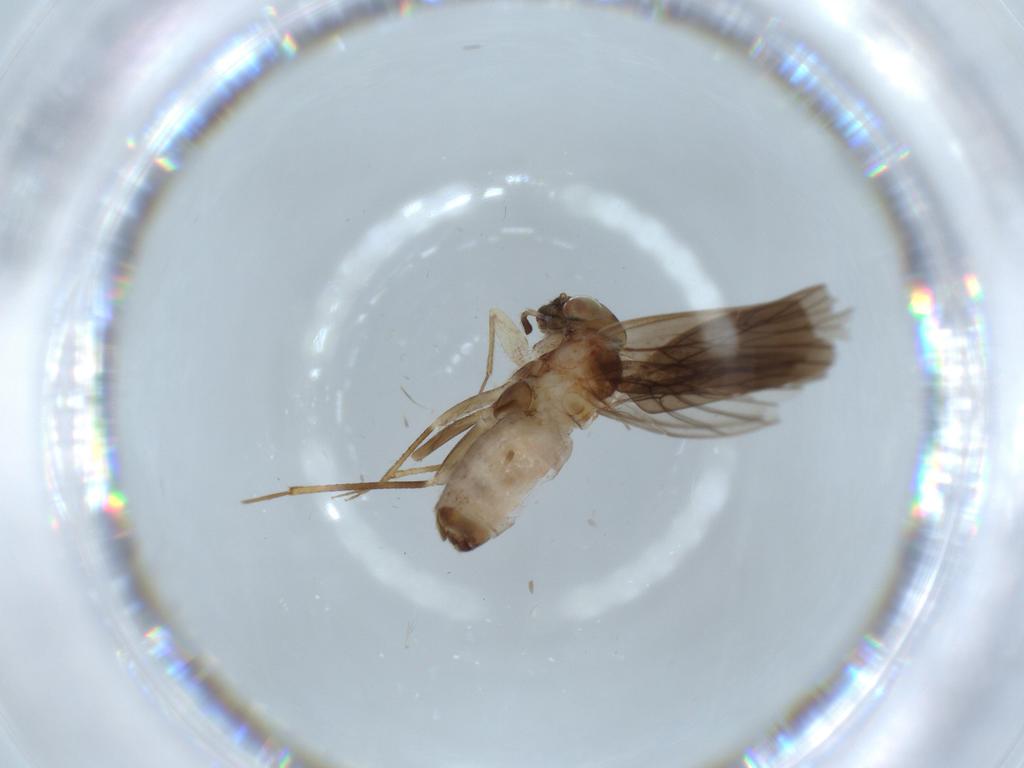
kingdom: Animalia
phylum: Arthropoda
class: Insecta
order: Psocodea
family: Lepidopsocidae
